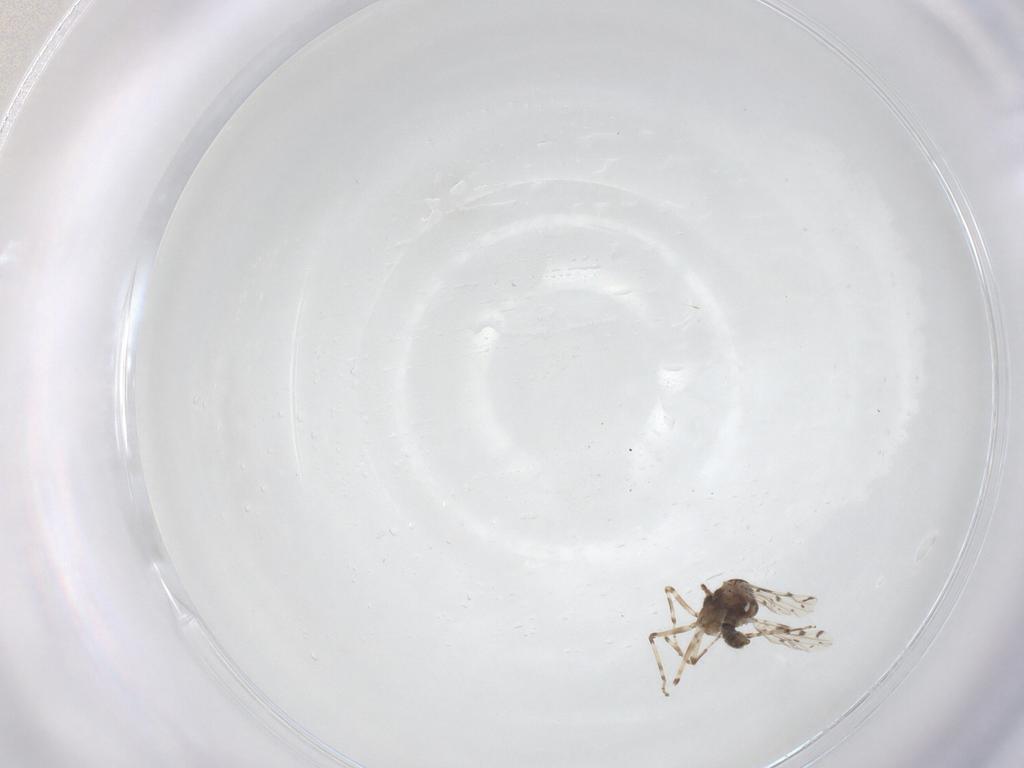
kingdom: Animalia
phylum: Arthropoda
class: Insecta
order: Diptera
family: Ceratopogonidae
